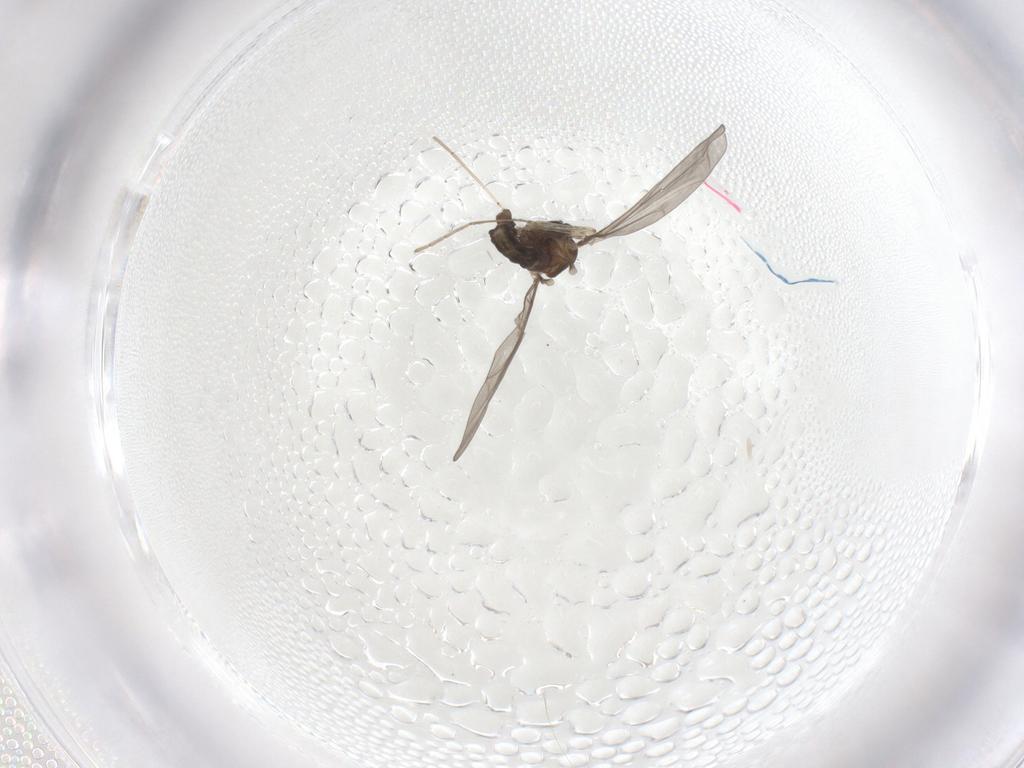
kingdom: Animalia
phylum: Arthropoda
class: Insecta
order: Diptera
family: Cecidomyiidae
